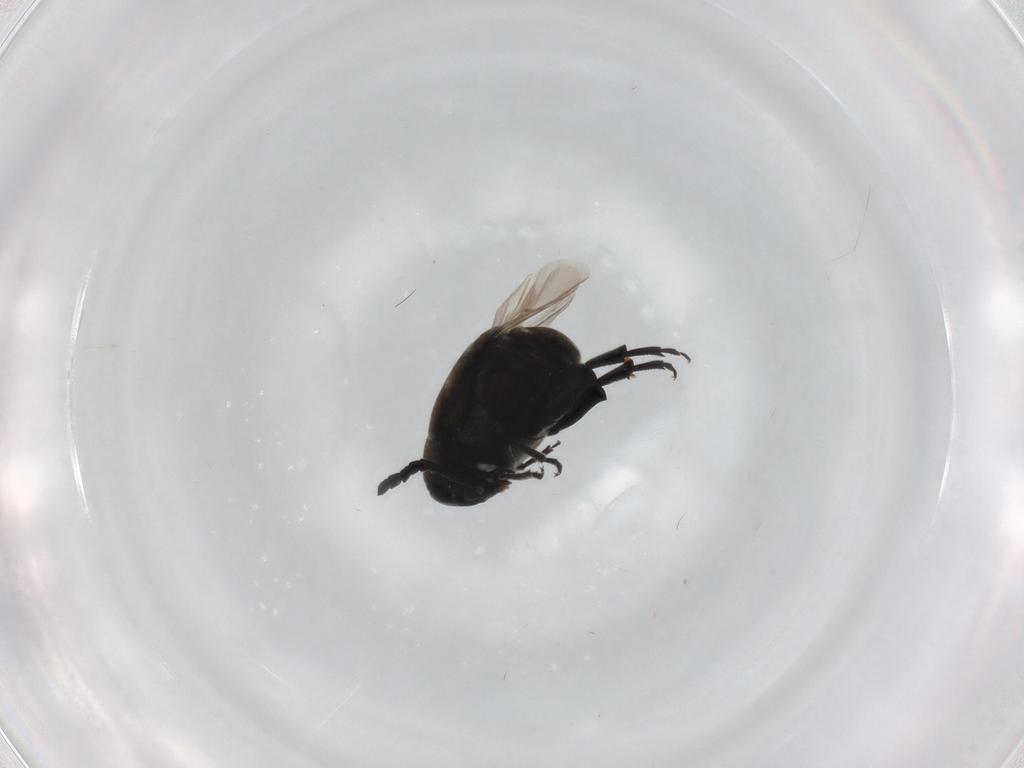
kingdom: Animalia
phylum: Arthropoda
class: Insecta
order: Coleoptera
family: Chrysomelidae
